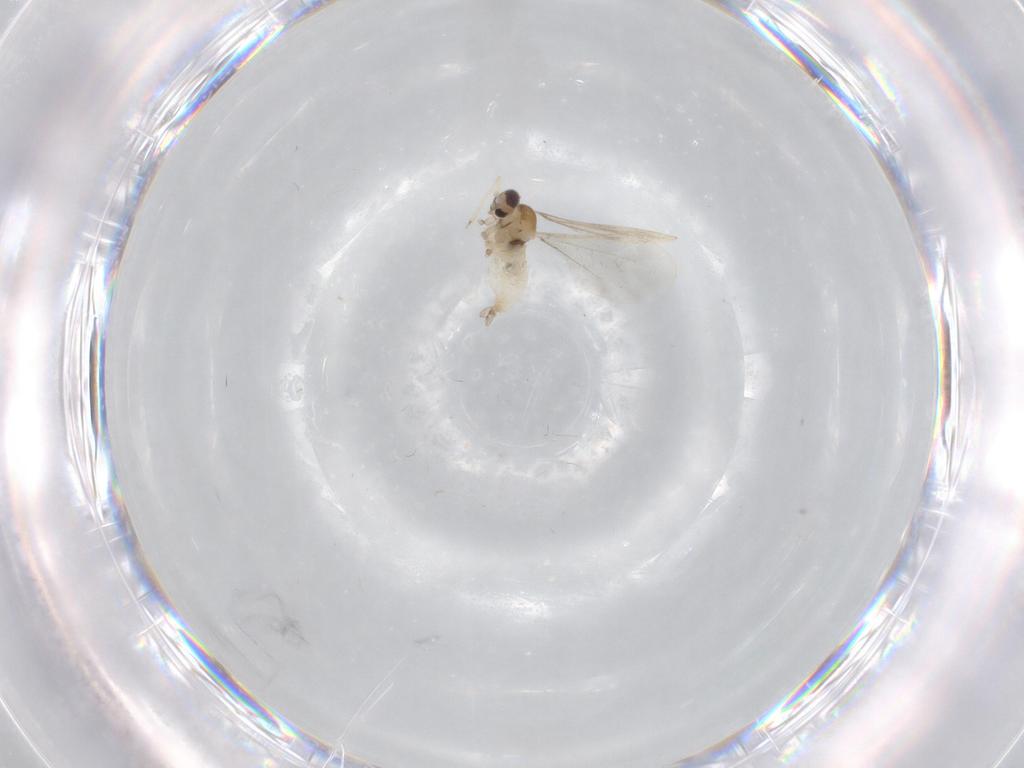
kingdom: Animalia
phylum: Arthropoda
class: Insecta
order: Diptera
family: Cecidomyiidae
